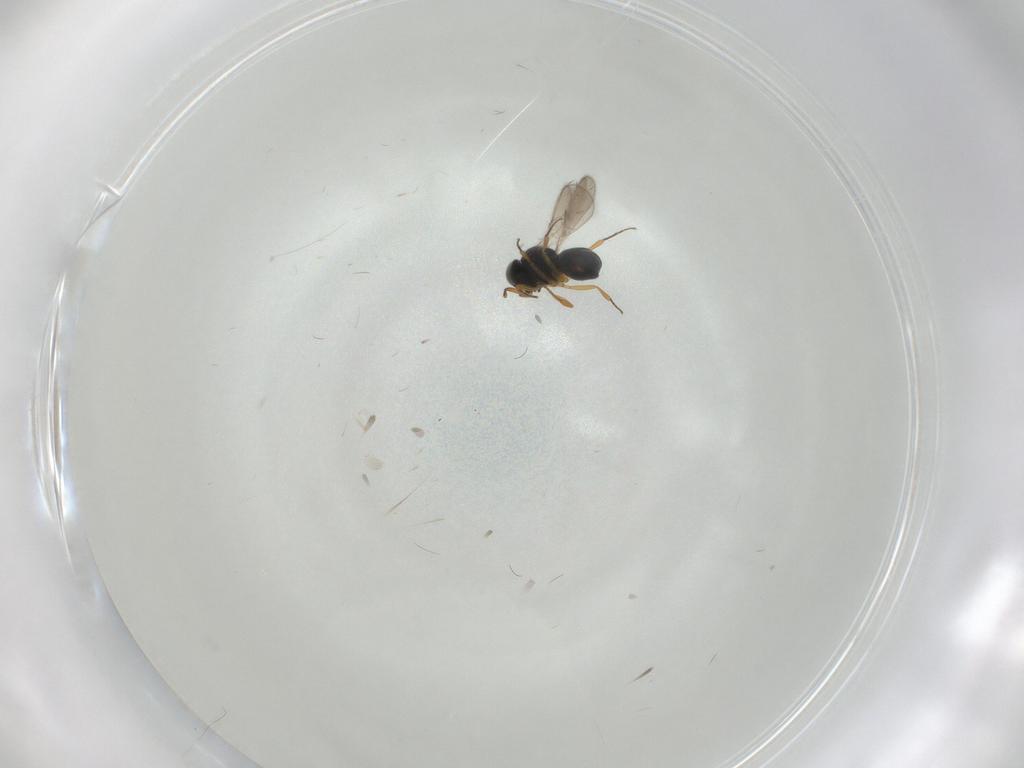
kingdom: Animalia
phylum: Arthropoda
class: Insecta
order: Hymenoptera
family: Scelionidae
